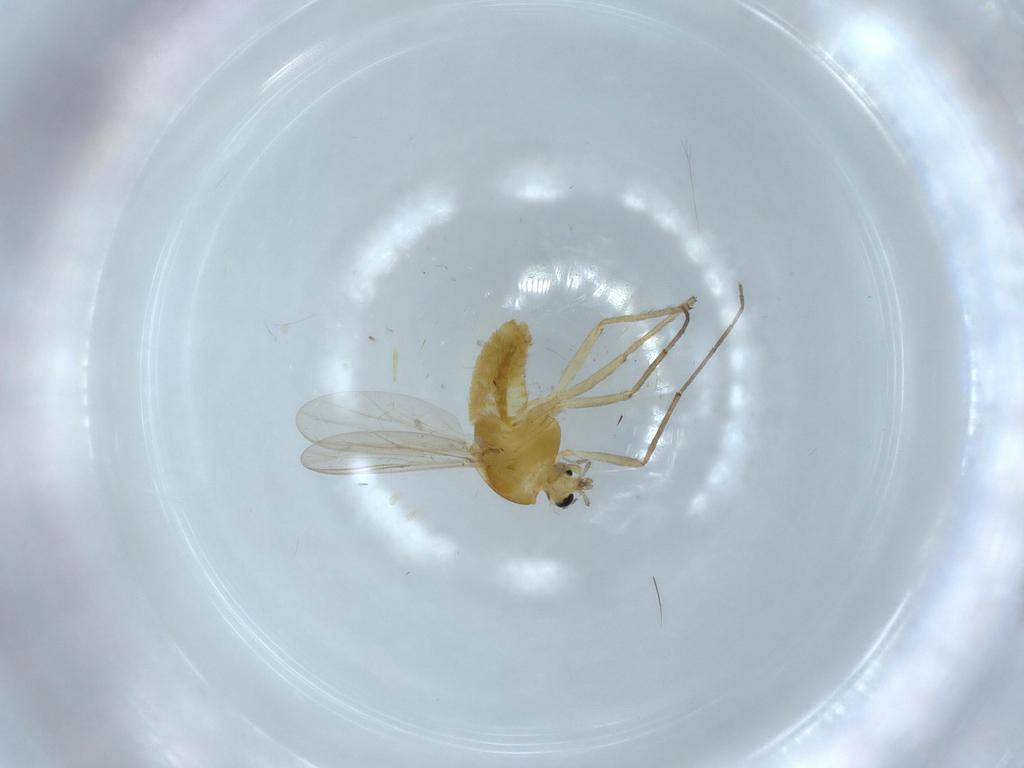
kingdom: Animalia
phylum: Arthropoda
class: Insecta
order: Diptera
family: Chironomidae
